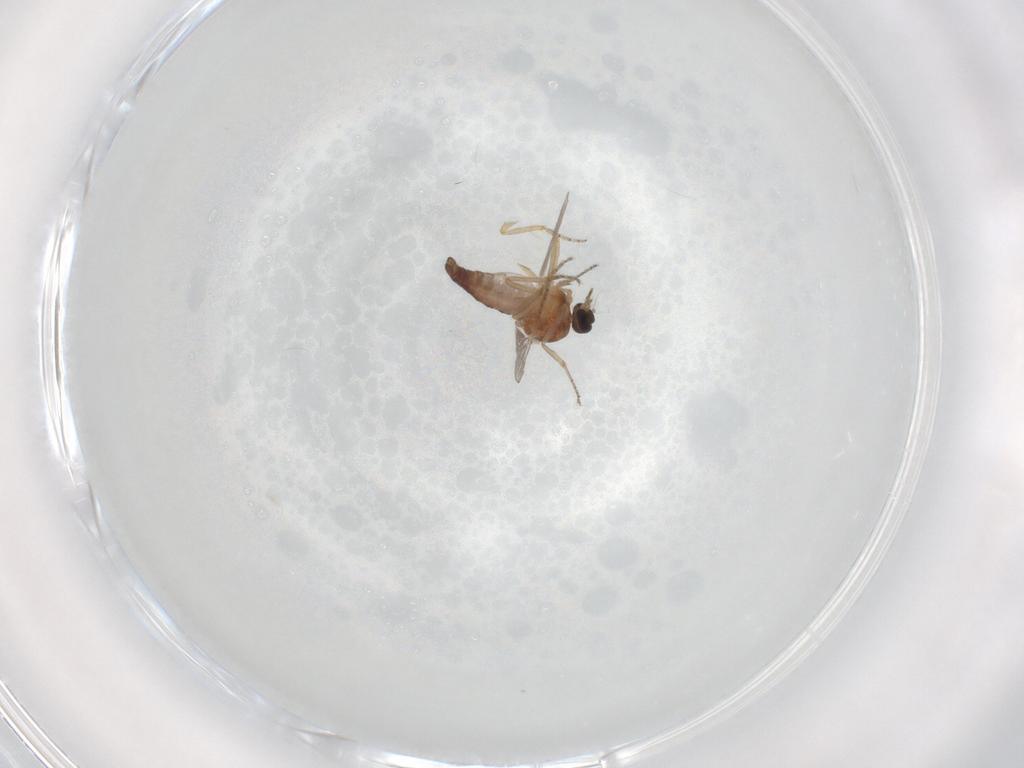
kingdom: Animalia
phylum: Arthropoda
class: Insecta
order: Diptera
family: Ceratopogonidae
